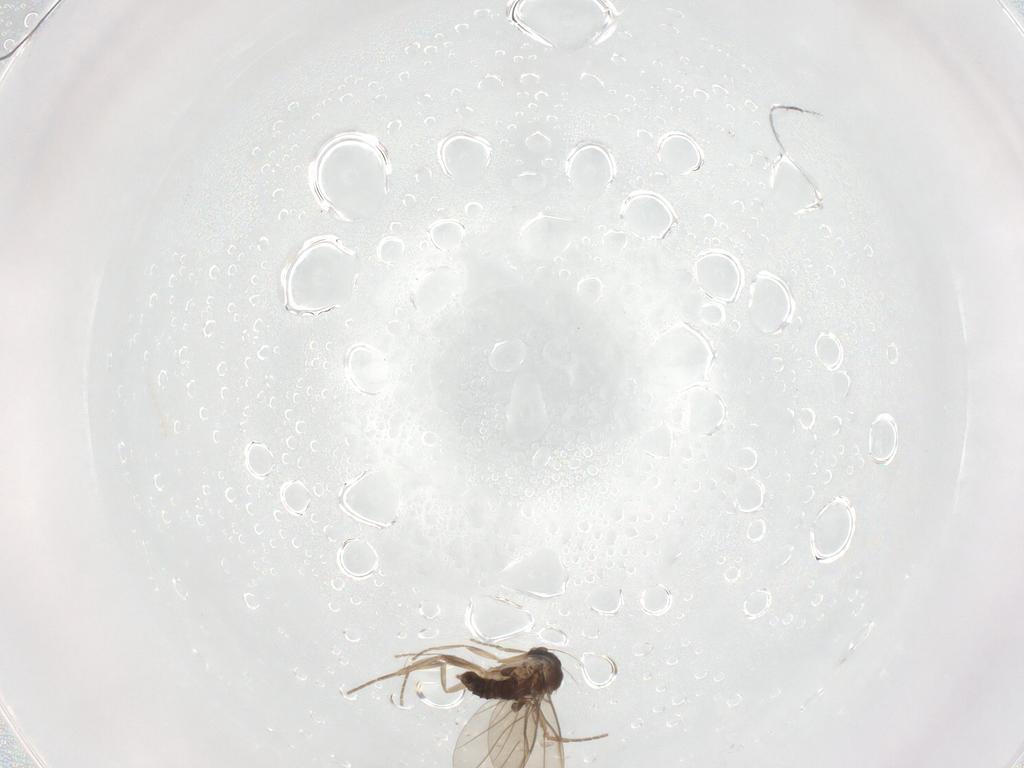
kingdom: Animalia
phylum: Arthropoda
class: Insecta
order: Diptera
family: Phoridae
